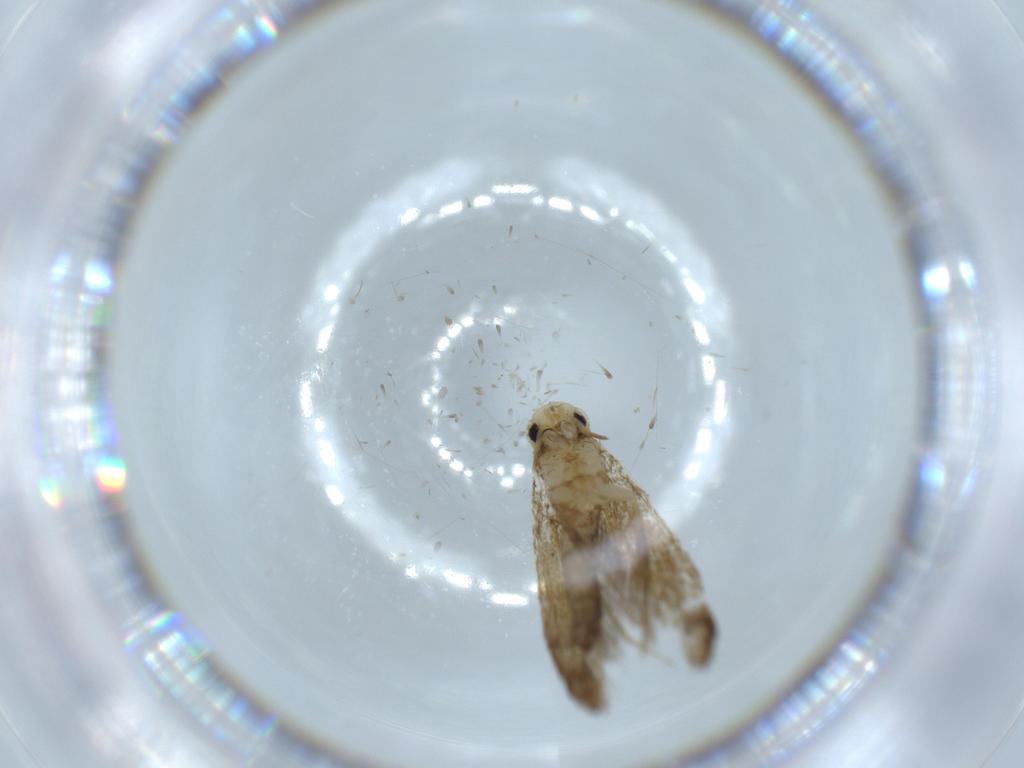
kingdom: Animalia
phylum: Arthropoda
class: Insecta
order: Lepidoptera
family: Tineidae
